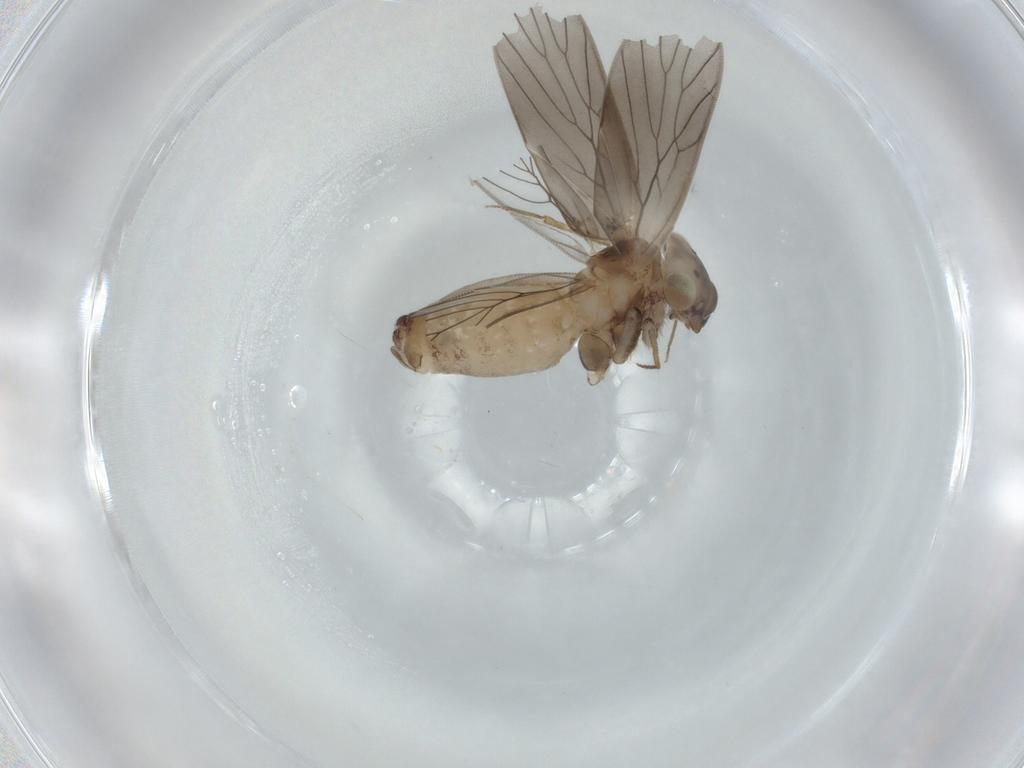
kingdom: Animalia
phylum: Arthropoda
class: Insecta
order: Psocodea
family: Lepidopsocidae
